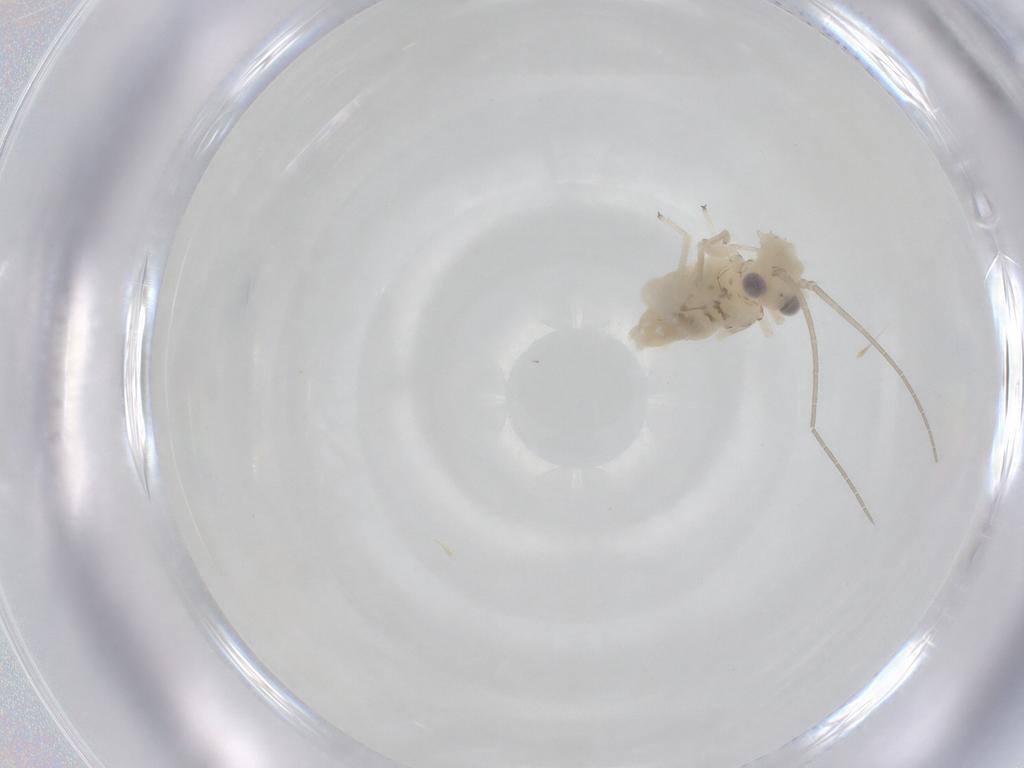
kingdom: Animalia
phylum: Arthropoda
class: Insecta
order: Psocodea
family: Caeciliusidae
